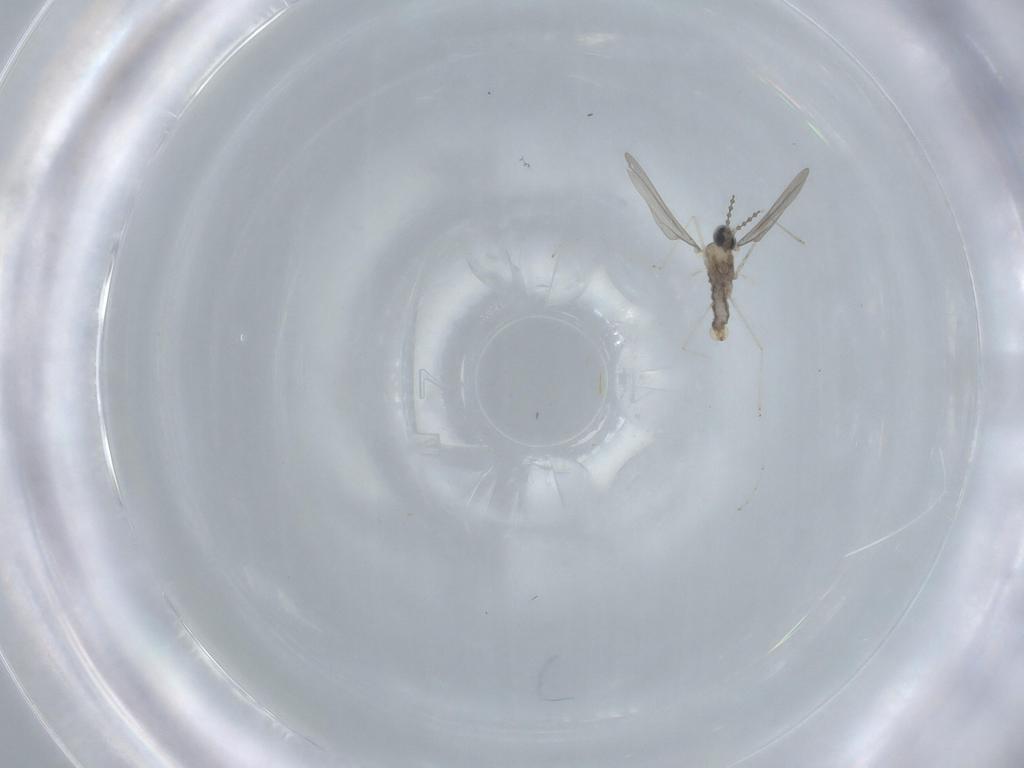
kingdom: Animalia
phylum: Arthropoda
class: Insecta
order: Diptera
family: Cecidomyiidae
